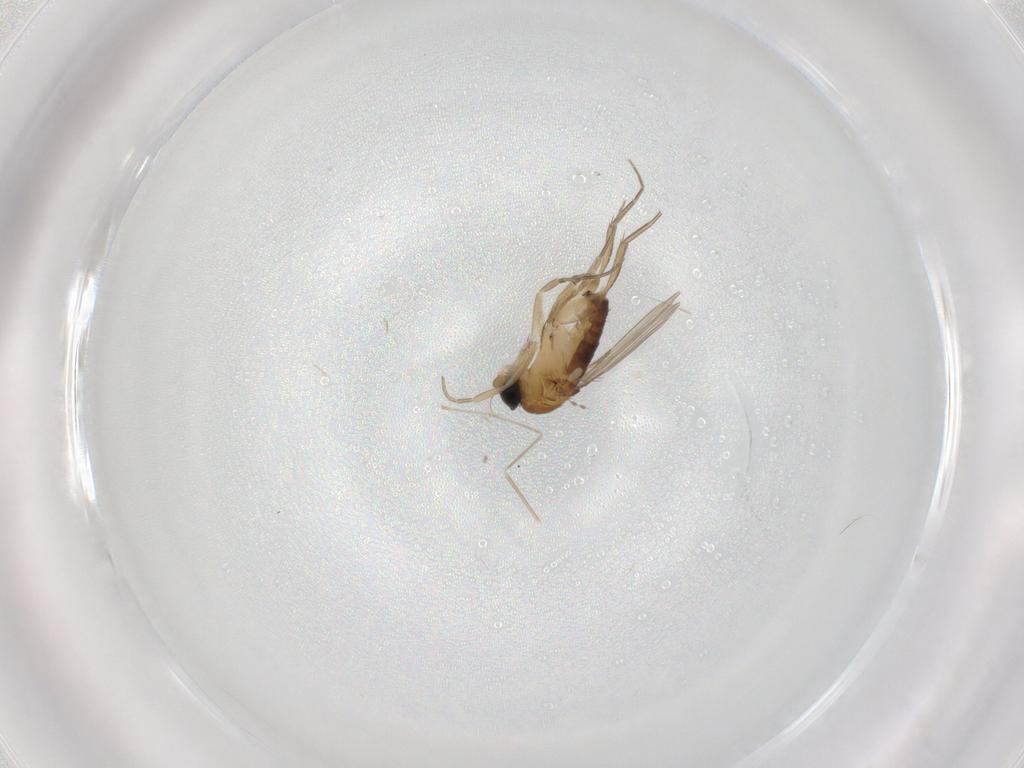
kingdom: Animalia
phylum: Arthropoda
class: Insecta
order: Diptera
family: Phoridae
